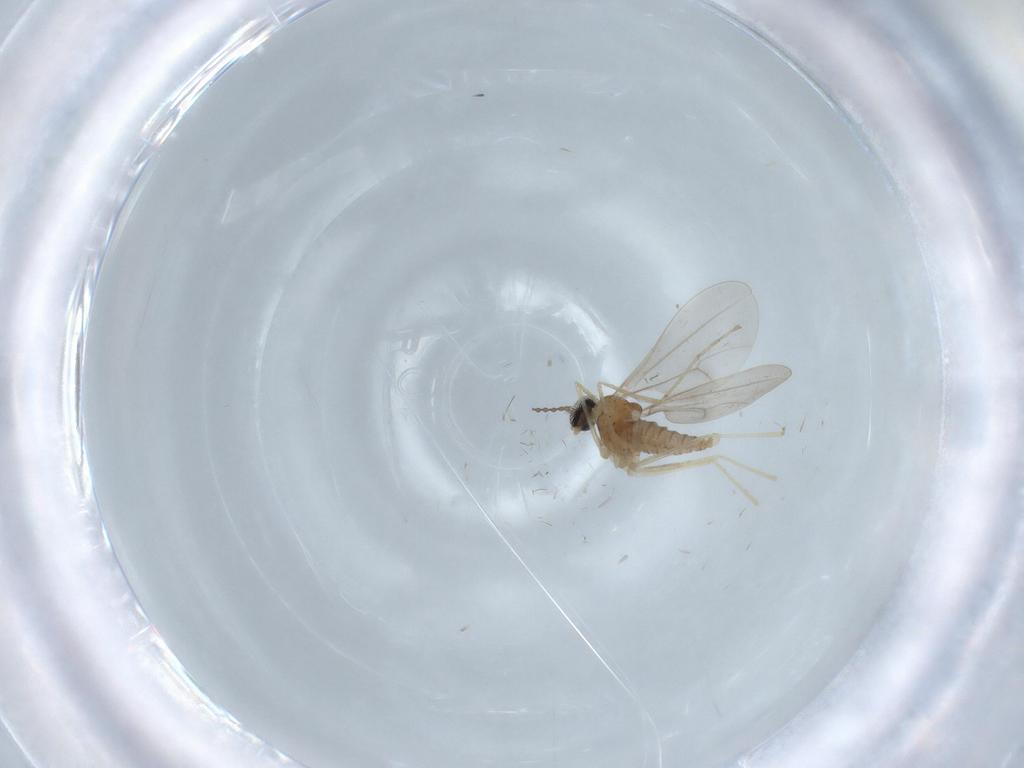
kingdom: Animalia
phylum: Arthropoda
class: Insecta
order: Diptera
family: Cecidomyiidae
